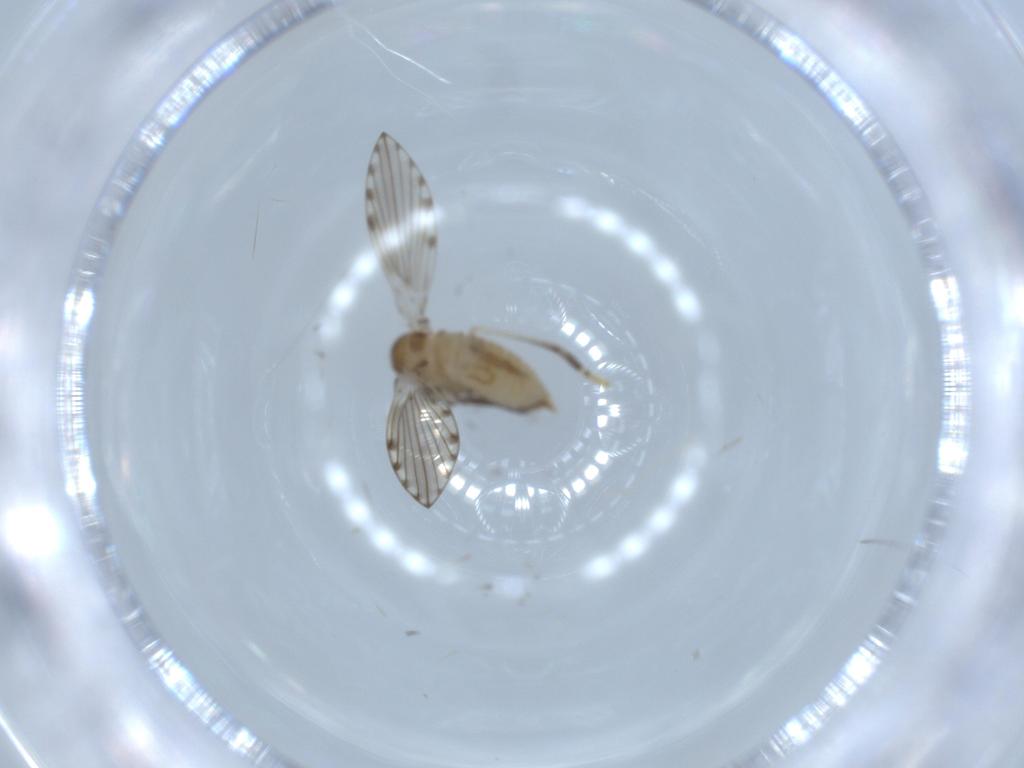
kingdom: Animalia
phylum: Arthropoda
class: Insecta
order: Diptera
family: Psychodidae
